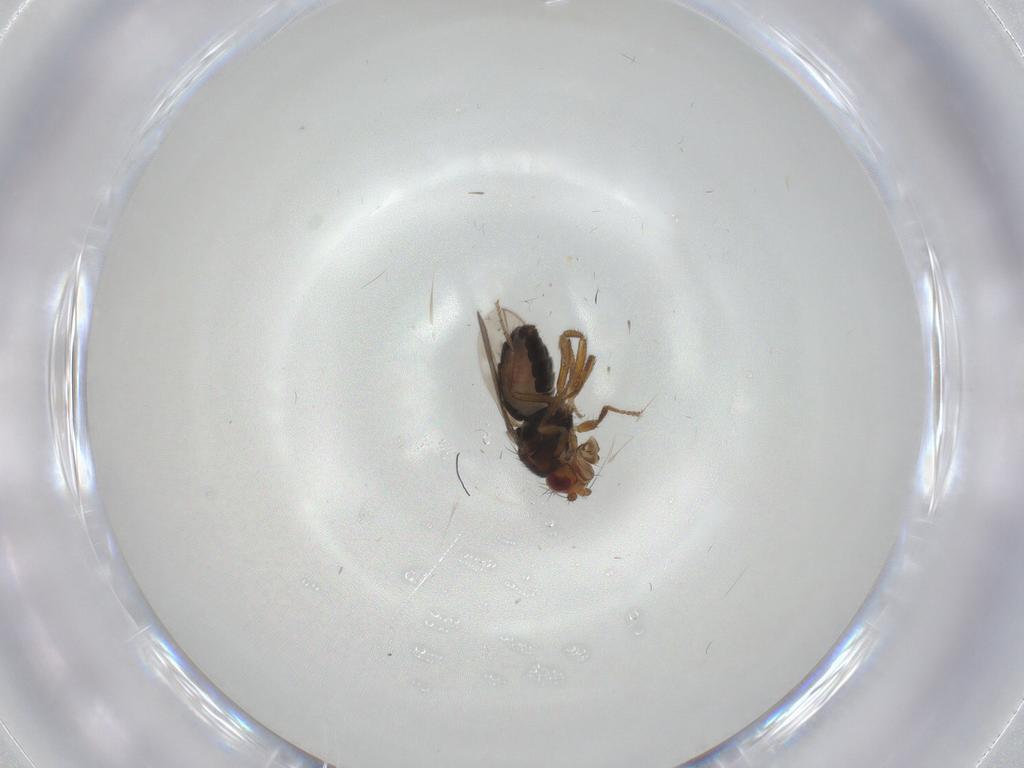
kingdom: Animalia
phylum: Arthropoda
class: Insecta
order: Diptera
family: Sphaeroceridae
